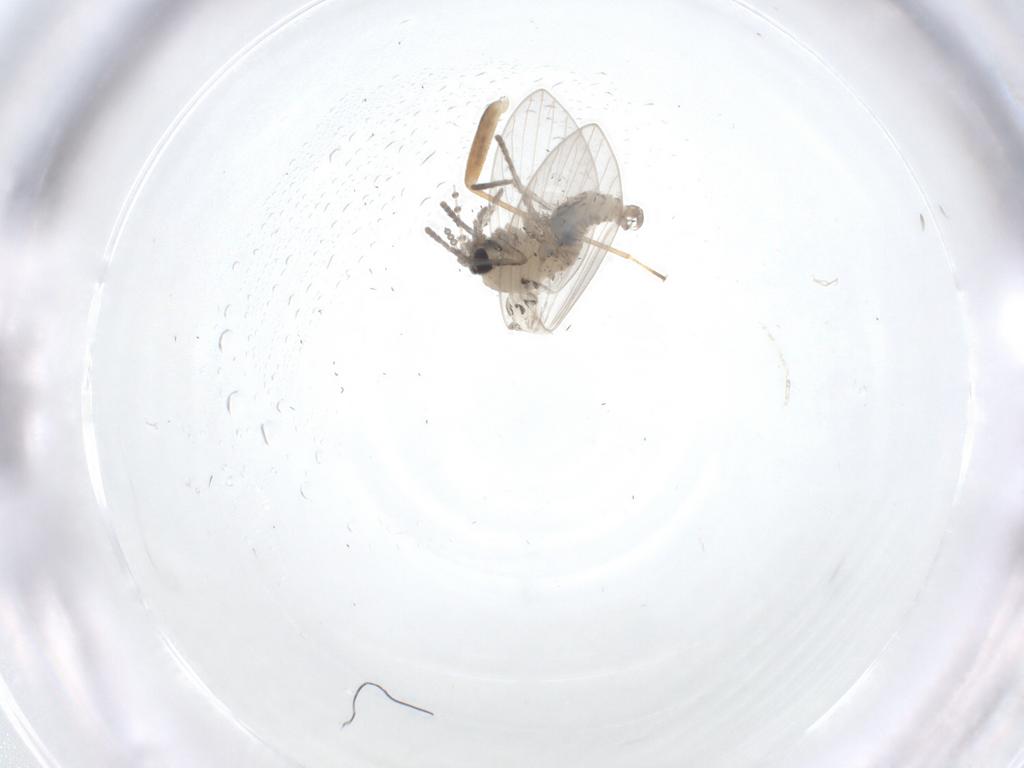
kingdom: Animalia
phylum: Arthropoda
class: Insecta
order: Diptera
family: Psychodidae
